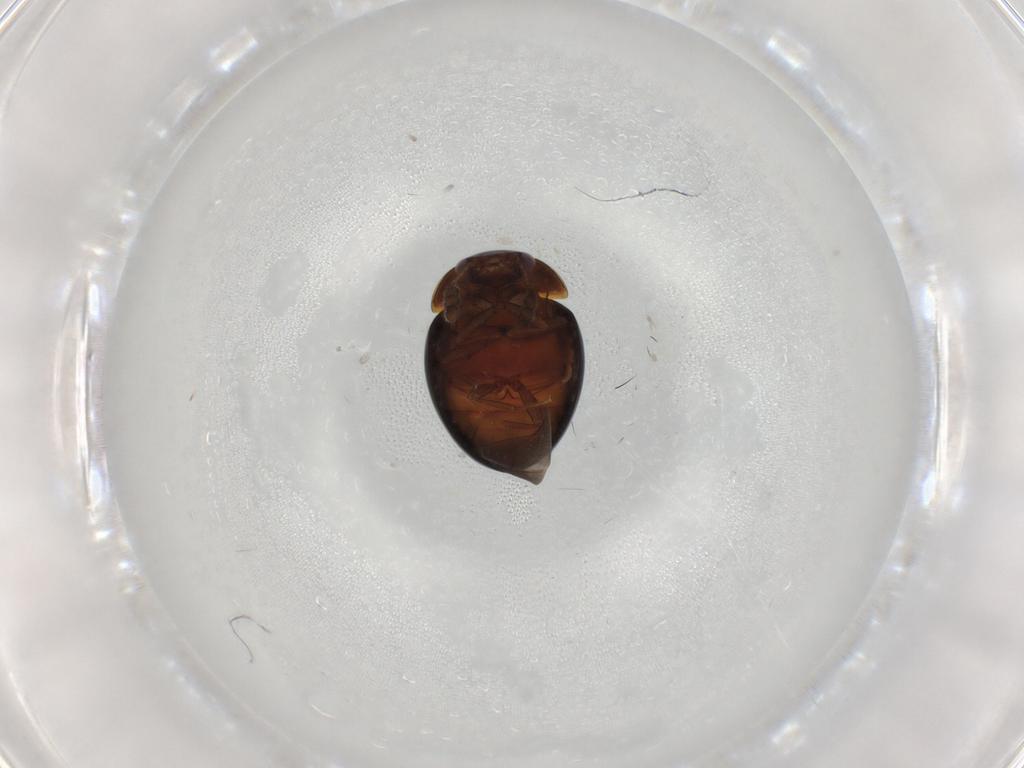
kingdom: Animalia
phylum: Arthropoda
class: Insecta
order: Coleoptera
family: Leiodidae
